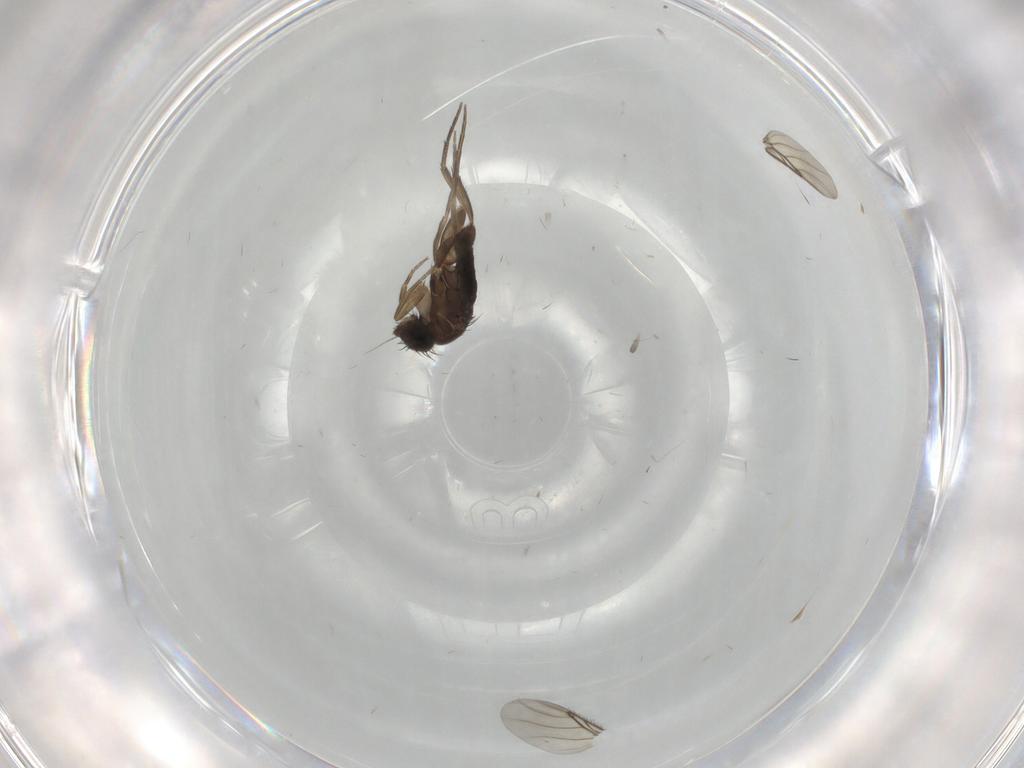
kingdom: Animalia
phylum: Arthropoda
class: Insecta
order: Diptera
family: Phoridae
